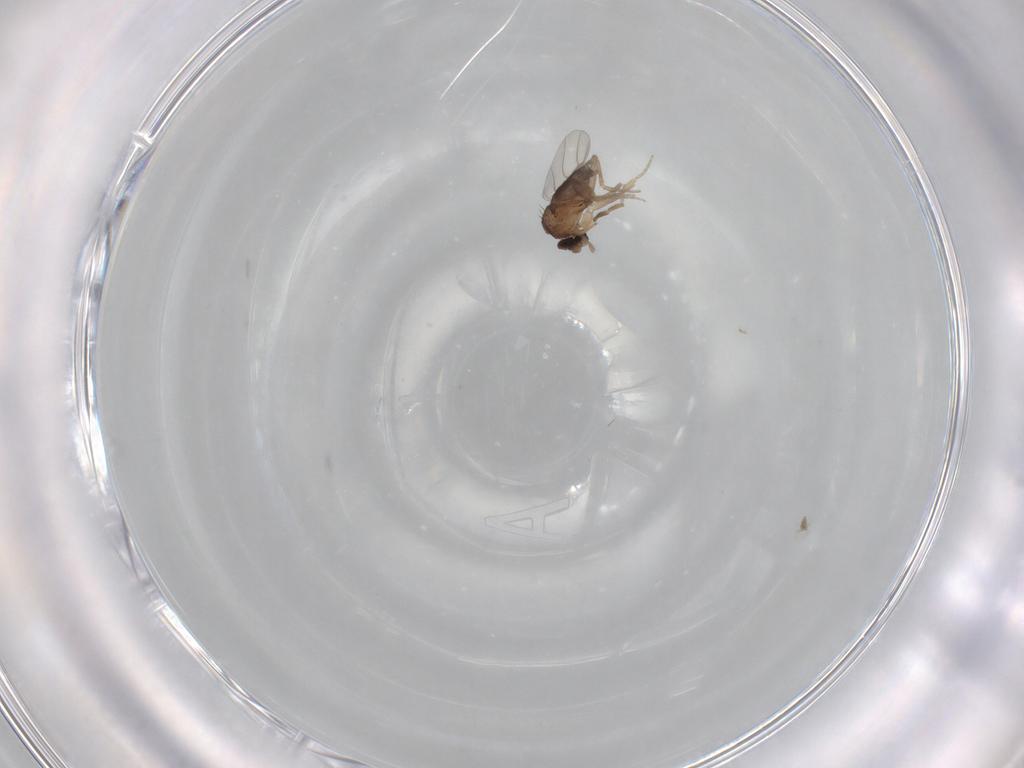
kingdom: Animalia
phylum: Arthropoda
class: Insecta
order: Diptera
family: Phoridae
